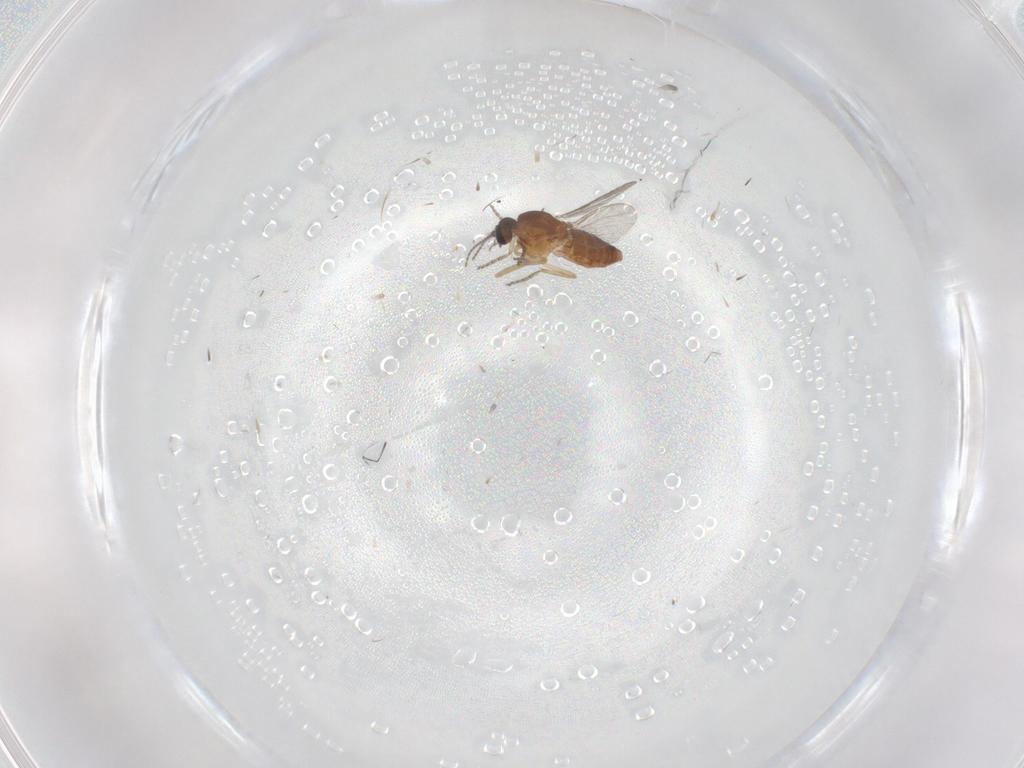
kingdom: Animalia
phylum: Arthropoda
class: Insecta
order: Diptera
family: Ceratopogonidae
